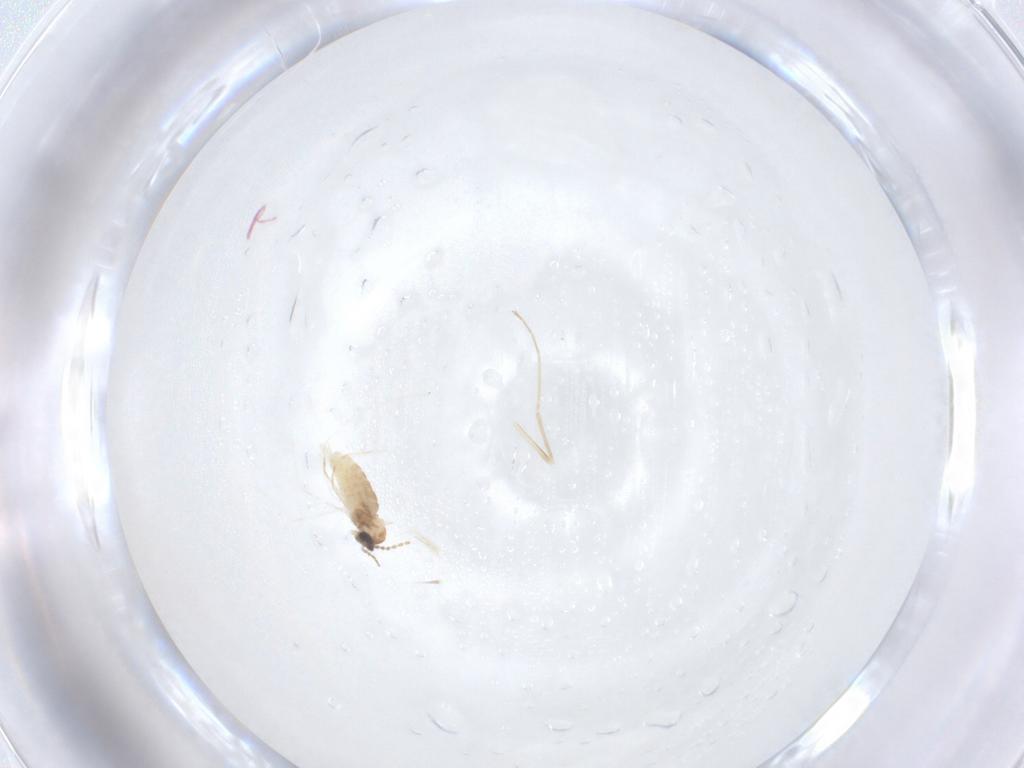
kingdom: Animalia
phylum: Arthropoda
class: Insecta
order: Diptera
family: Cecidomyiidae
